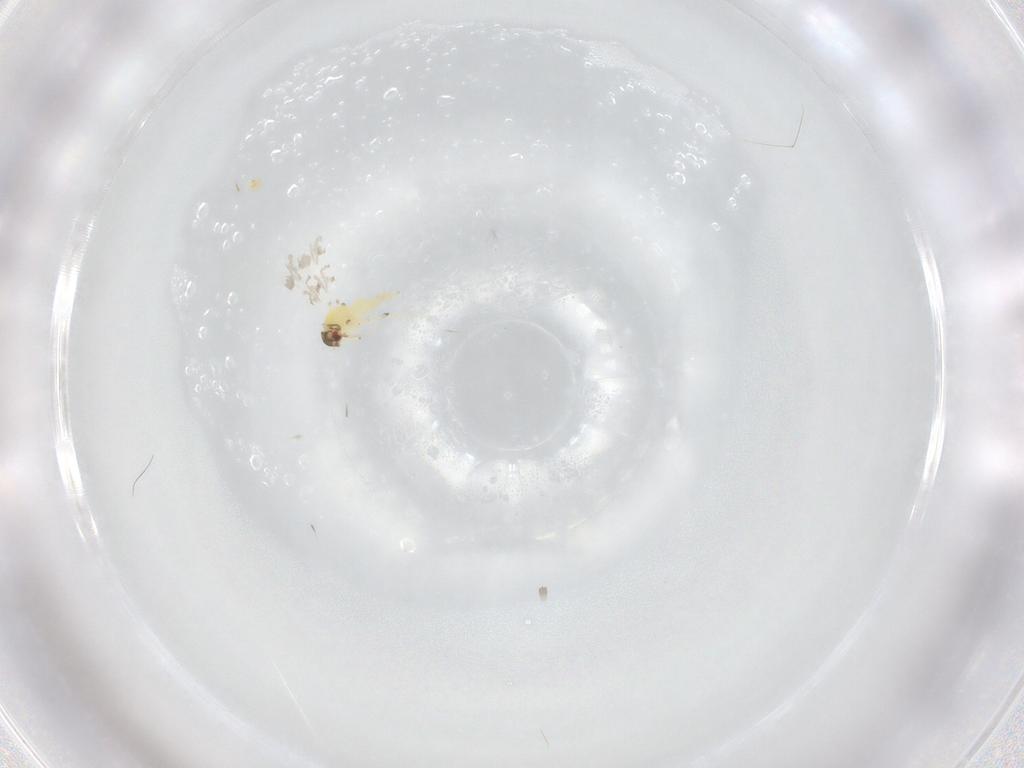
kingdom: Animalia
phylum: Arthropoda
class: Insecta
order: Hemiptera
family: Aleyrodidae
